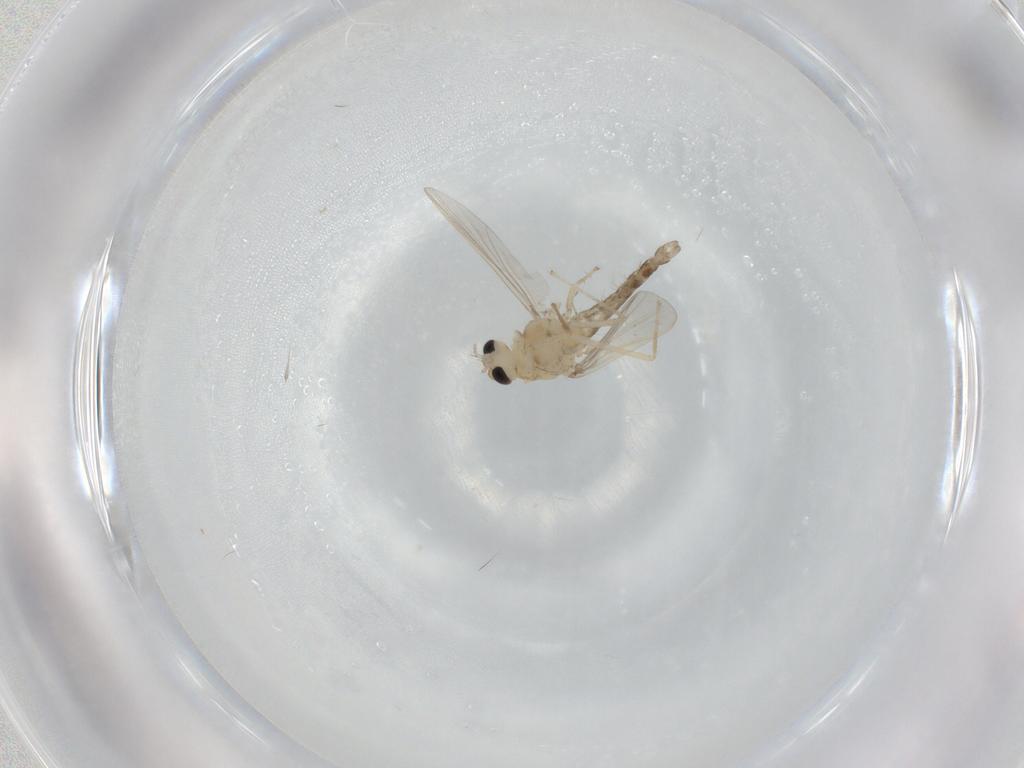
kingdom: Animalia
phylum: Arthropoda
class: Insecta
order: Diptera
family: Chironomidae
